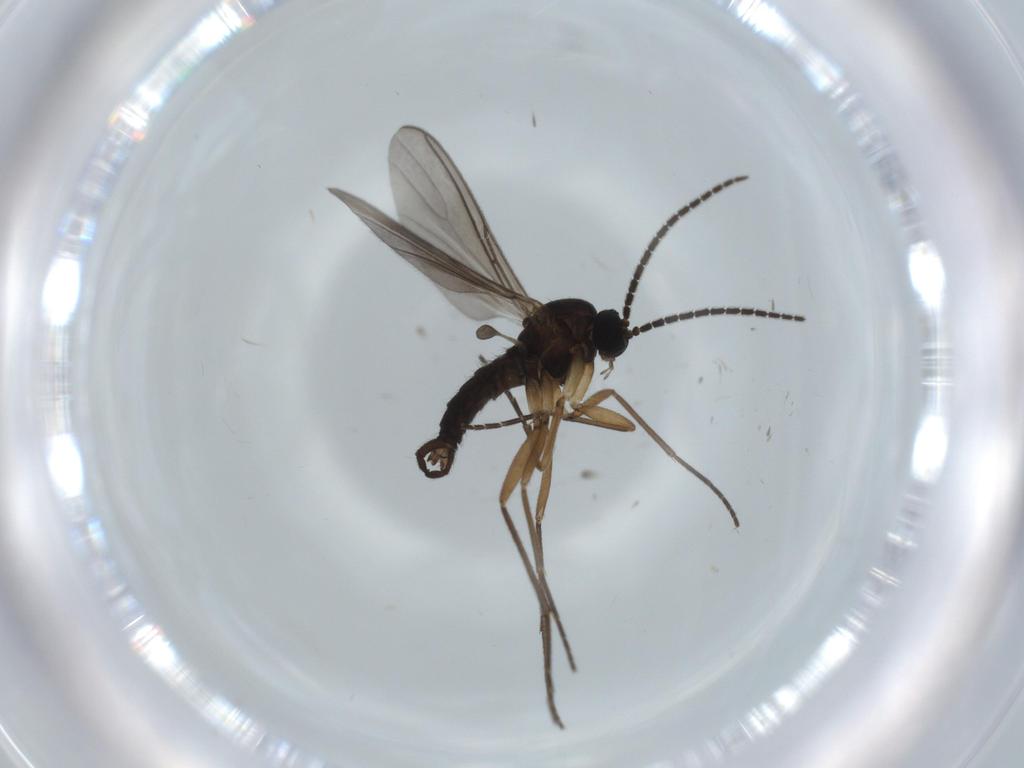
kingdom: Animalia
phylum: Arthropoda
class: Insecta
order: Diptera
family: Sciaridae
